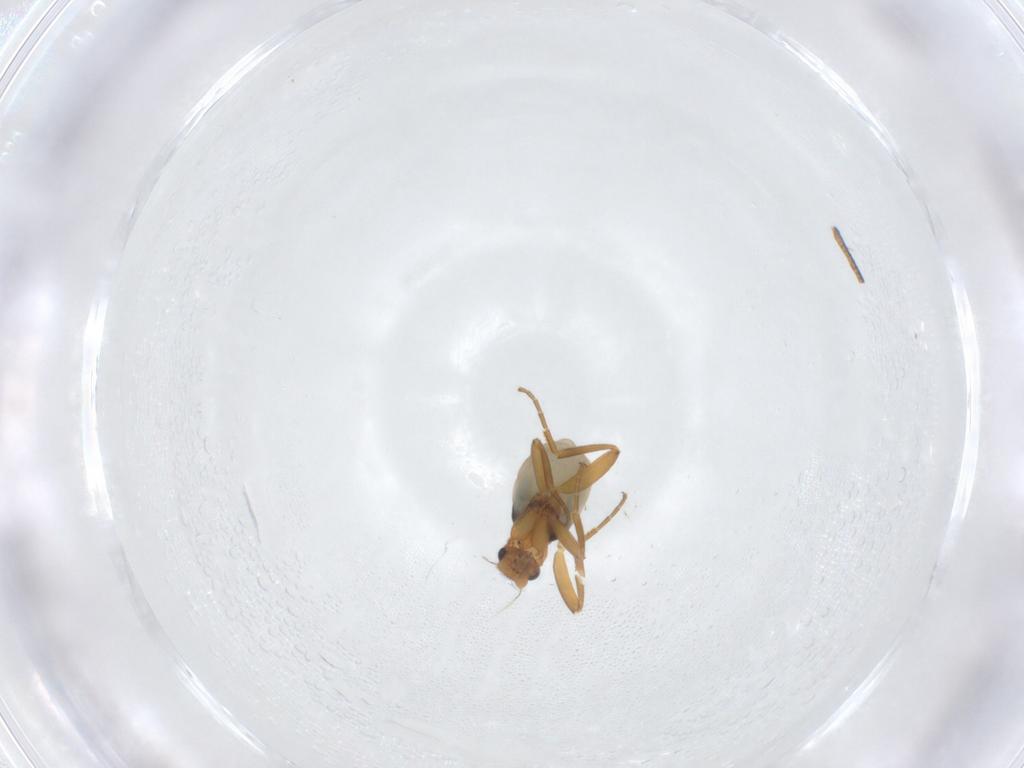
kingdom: Animalia
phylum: Arthropoda
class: Insecta
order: Diptera
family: Phoridae
